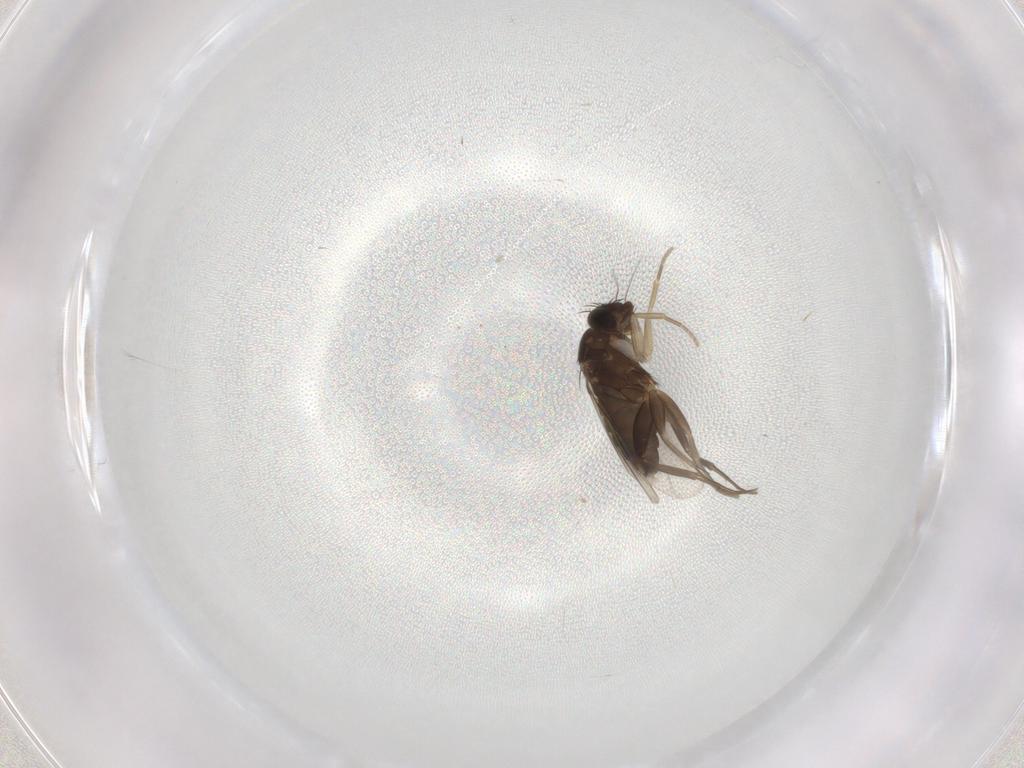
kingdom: Animalia
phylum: Arthropoda
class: Insecta
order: Diptera
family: Phoridae
